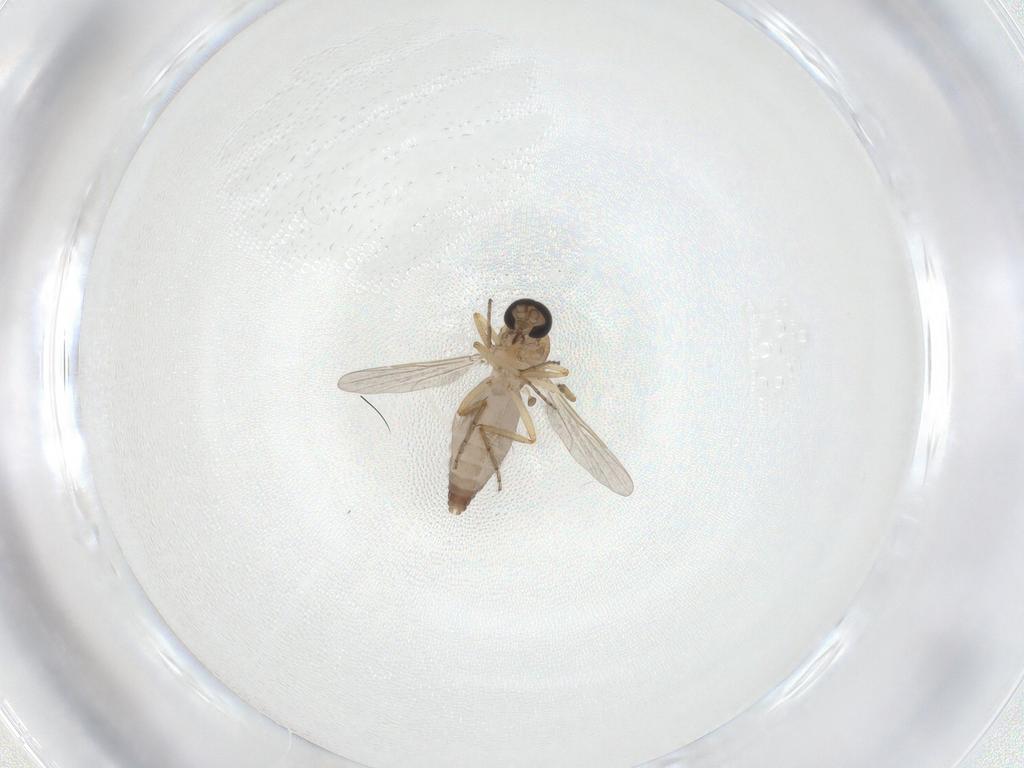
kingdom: Animalia
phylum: Arthropoda
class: Insecta
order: Diptera
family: Ceratopogonidae
